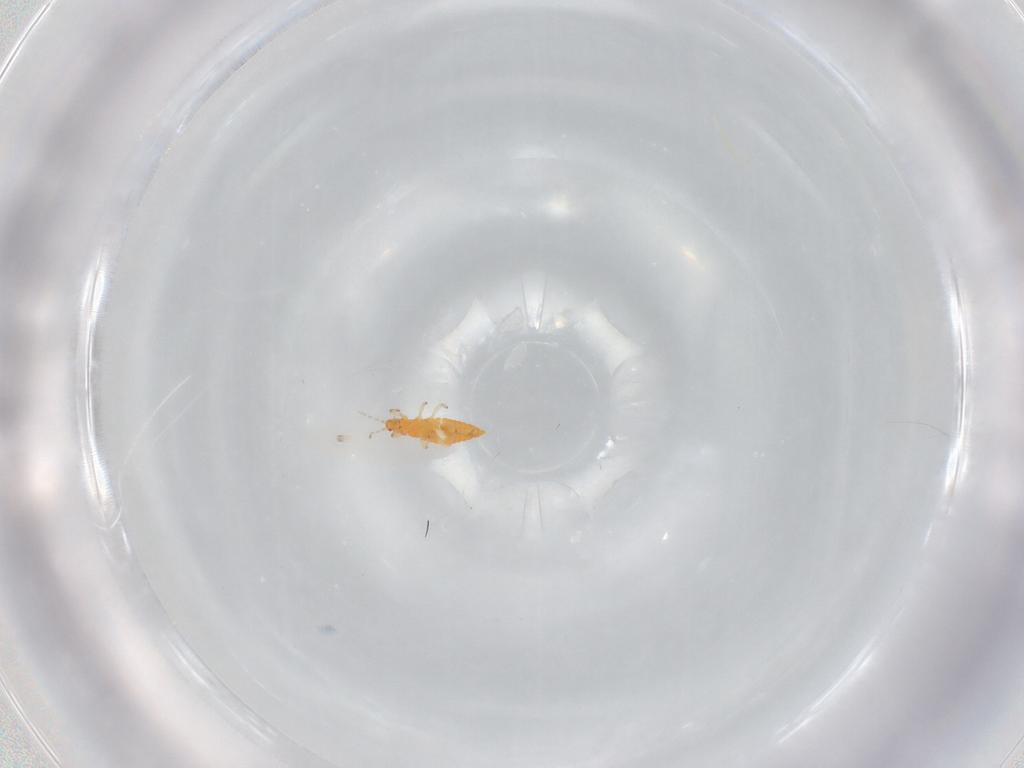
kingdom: Animalia
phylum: Arthropoda
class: Insecta
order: Thysanoptera
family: Aeolothripidae
